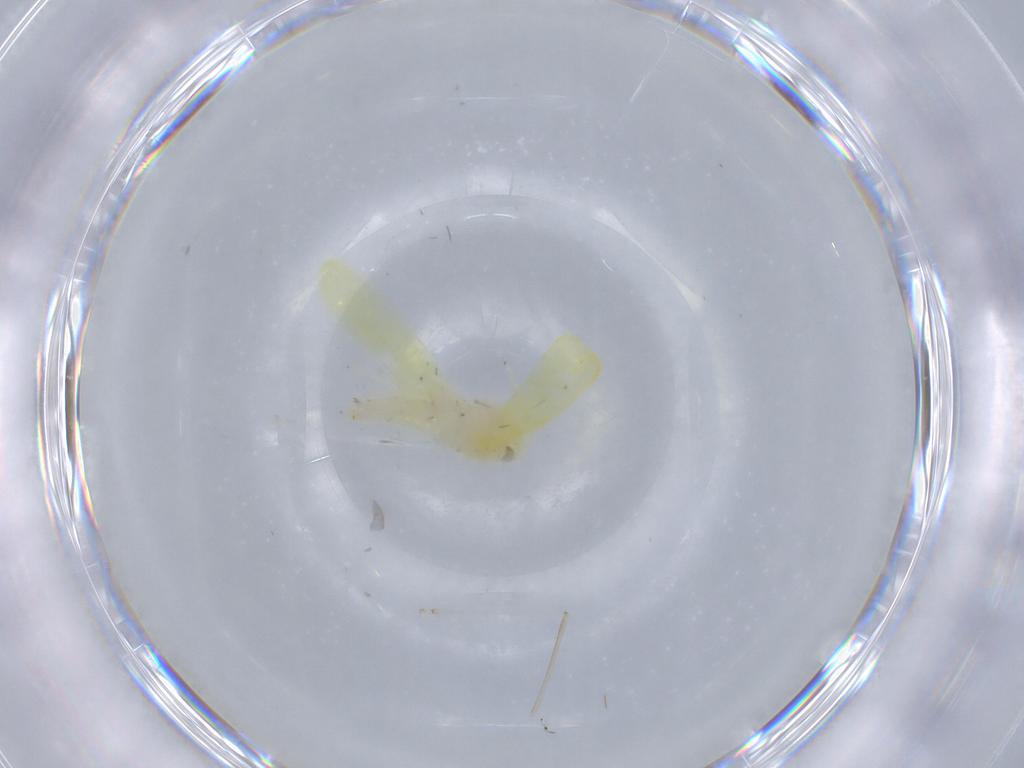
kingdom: Animalia
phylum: Arthropoda
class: Insecta
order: Hemiptera
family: Cicadellidae
